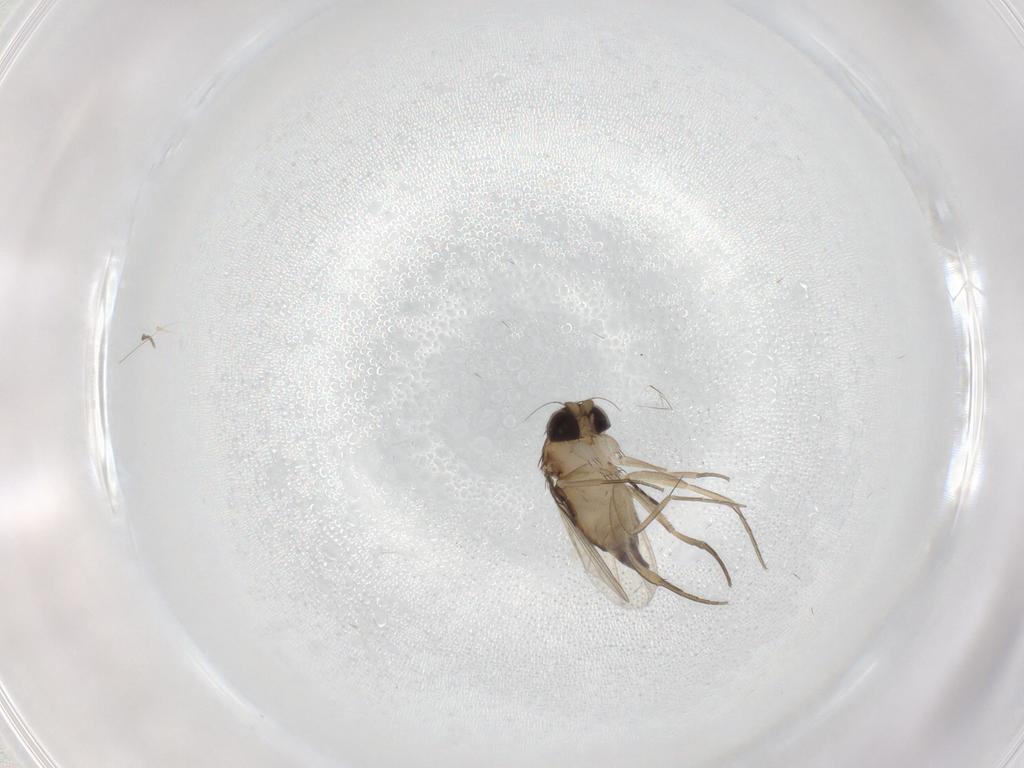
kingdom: Animalia
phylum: Arthropoda
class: Insecta
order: Diptera
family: Phoridae
